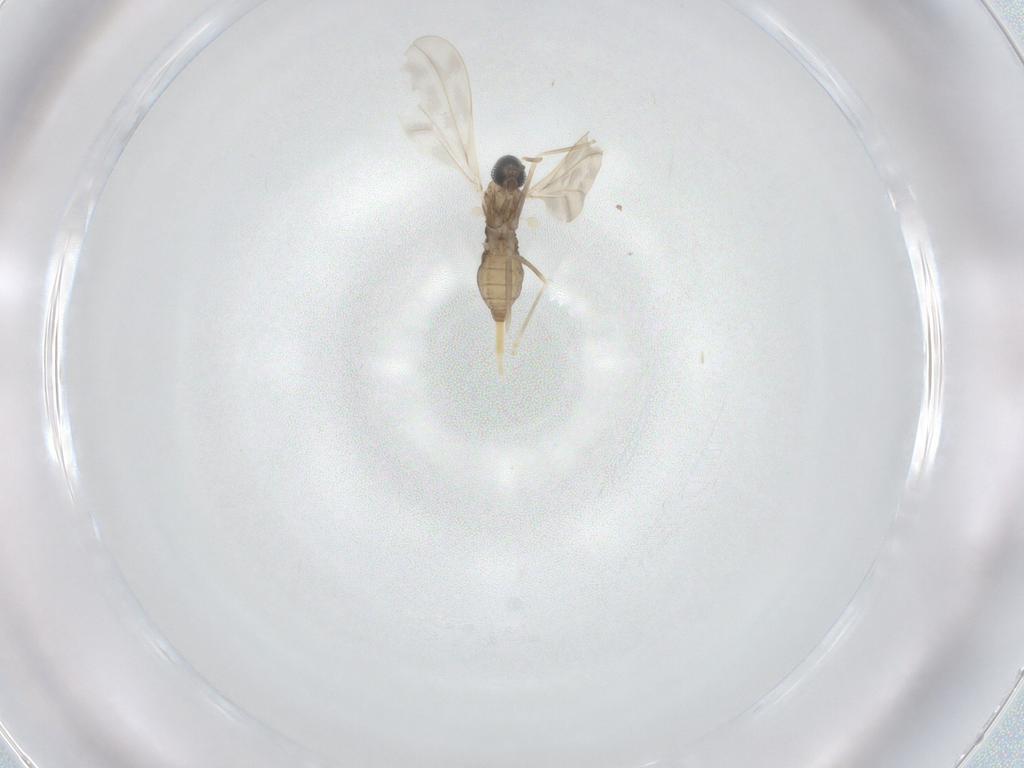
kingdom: Animalia
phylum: Arthropoda
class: Insecta
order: Diptera
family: Cecidomyiidae
